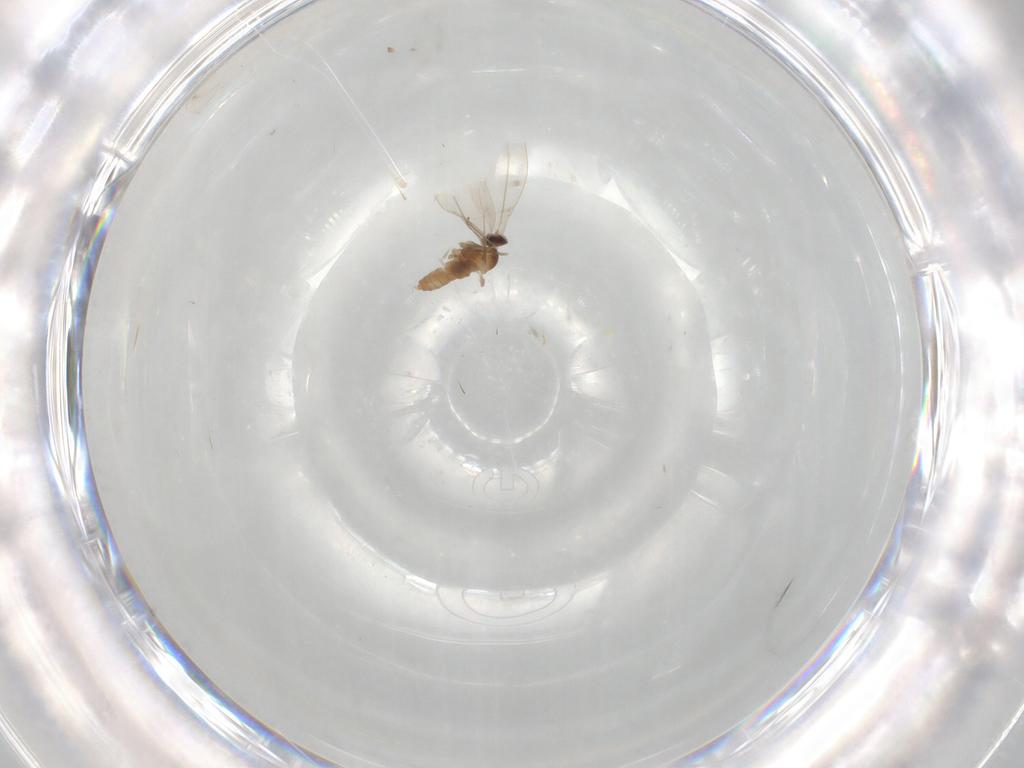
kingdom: Animalia
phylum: Arthropoda
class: Insecta
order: Diptera
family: Cecidomyiidae
